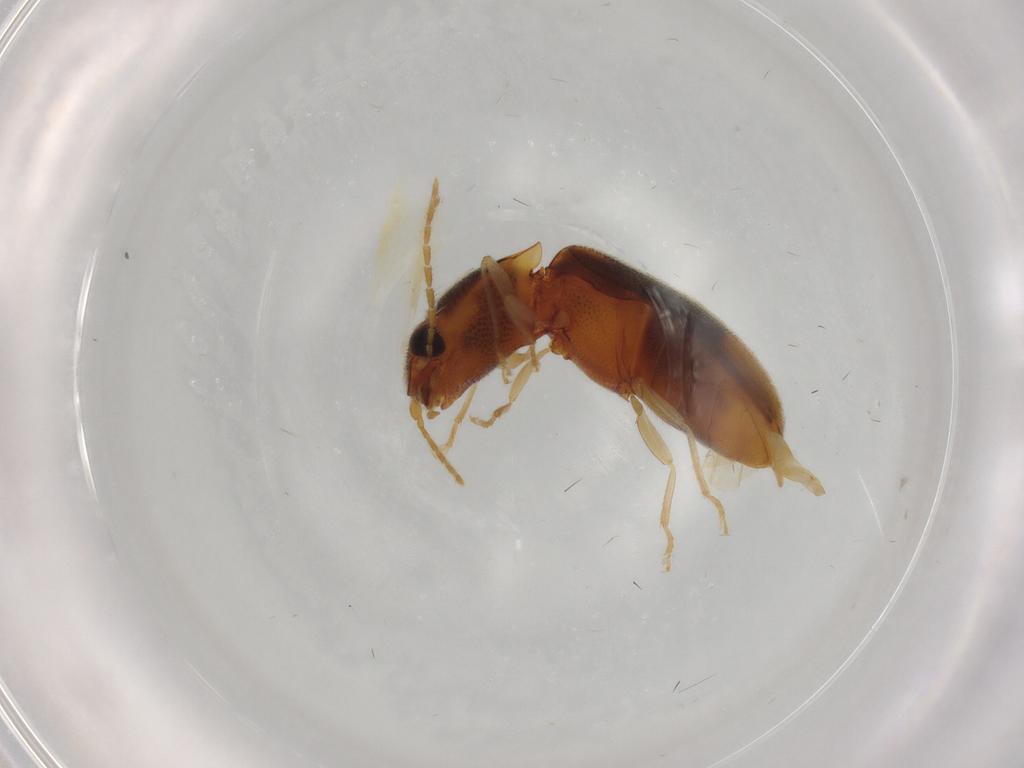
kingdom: Animalia
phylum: Arthropoda
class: Insecta
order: Coleoptera
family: Elateridae
